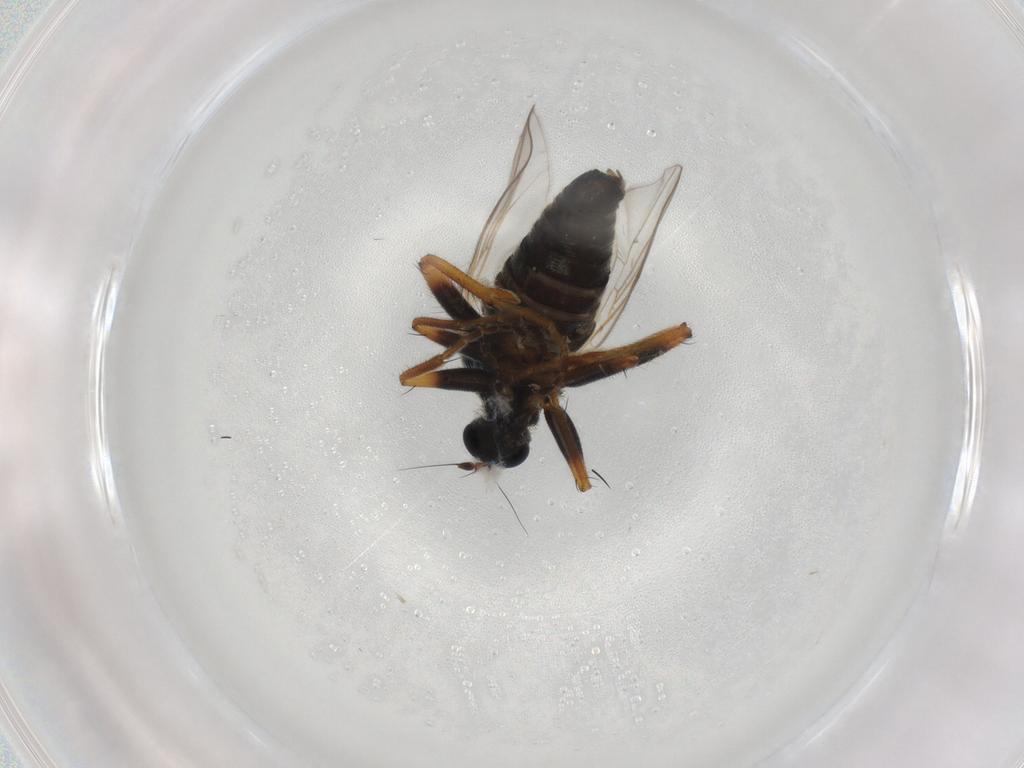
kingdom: Animalia
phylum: Arthropoda
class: Insecta
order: Diptera
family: Hybotidae
